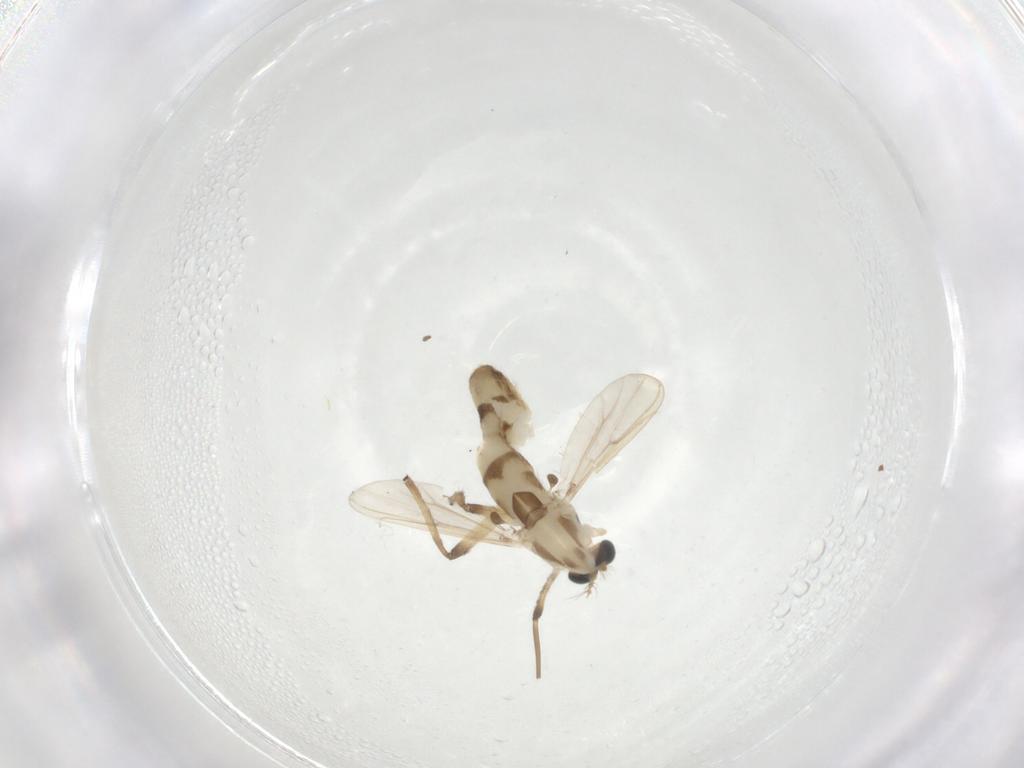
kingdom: Animalia
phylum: Arthropoda
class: Insecta
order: Diptera
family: Chironomidae
